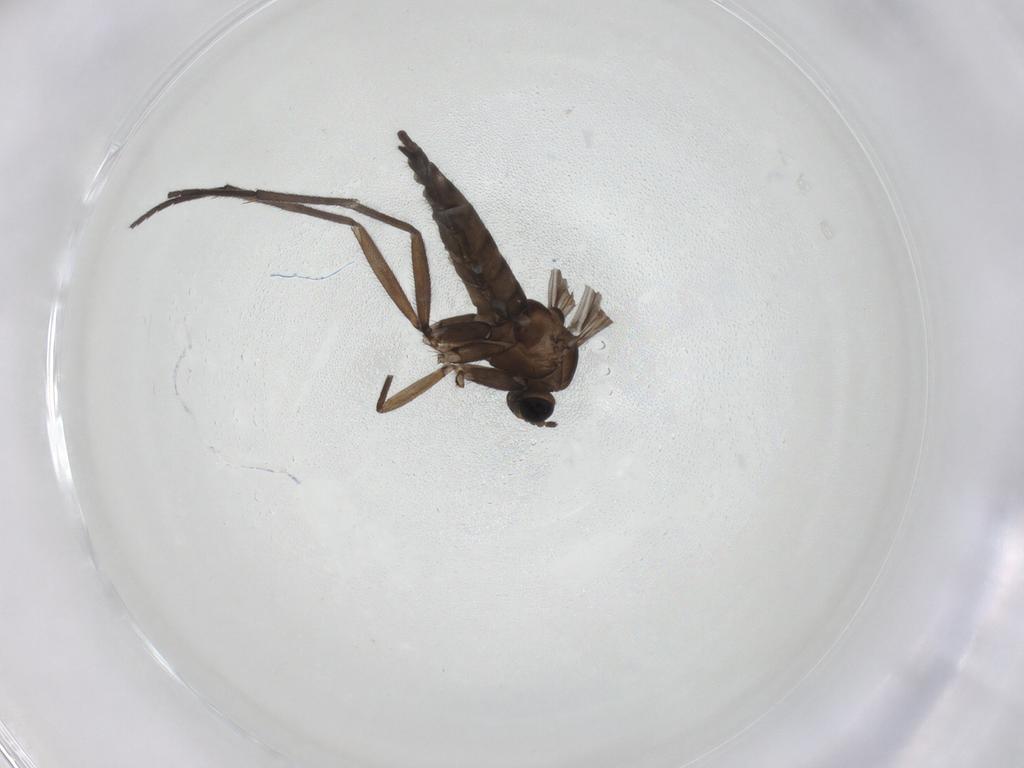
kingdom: Animalia
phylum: Arthropoda
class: Insecta
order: Diptera
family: Sciaridae
